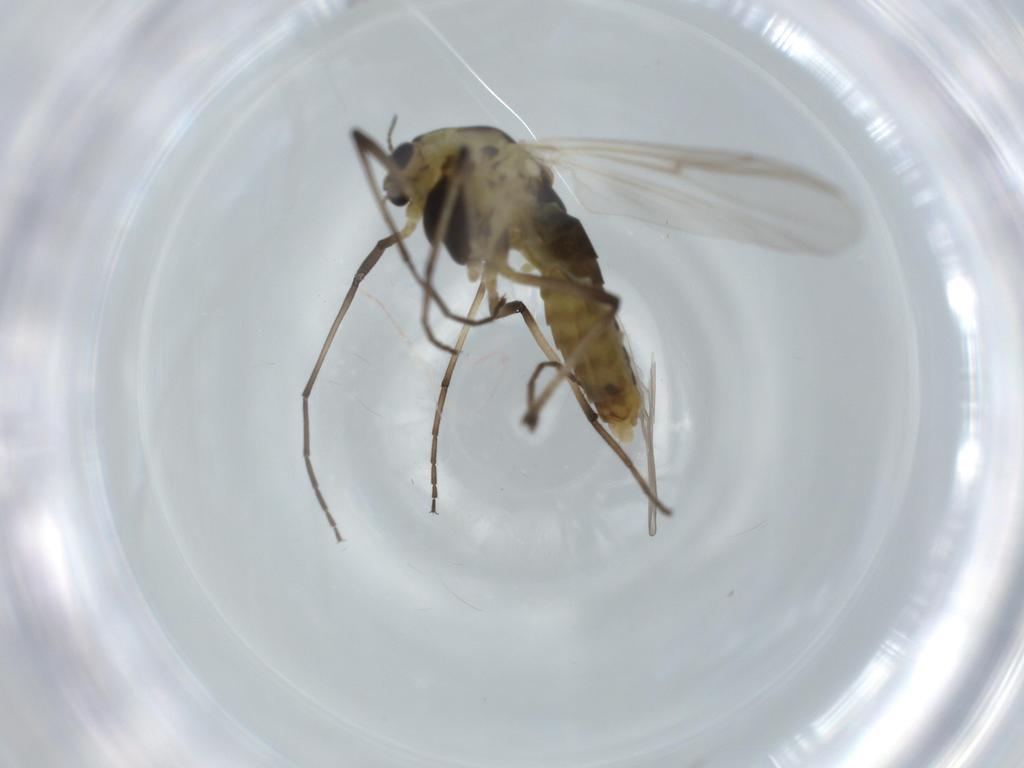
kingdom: Animalia
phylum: Arthropoda
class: Insecta
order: Diptera
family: Chironomidae
